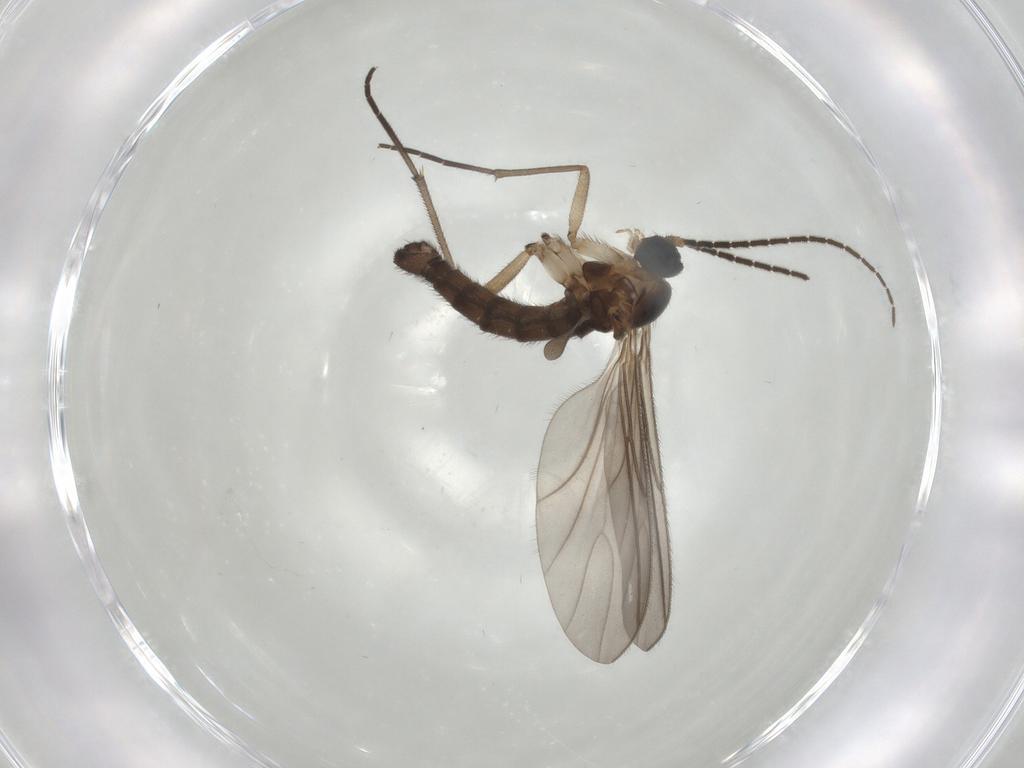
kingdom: Animalia
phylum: Arthropoda
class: Insecta
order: Diptera
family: Sciaridae
